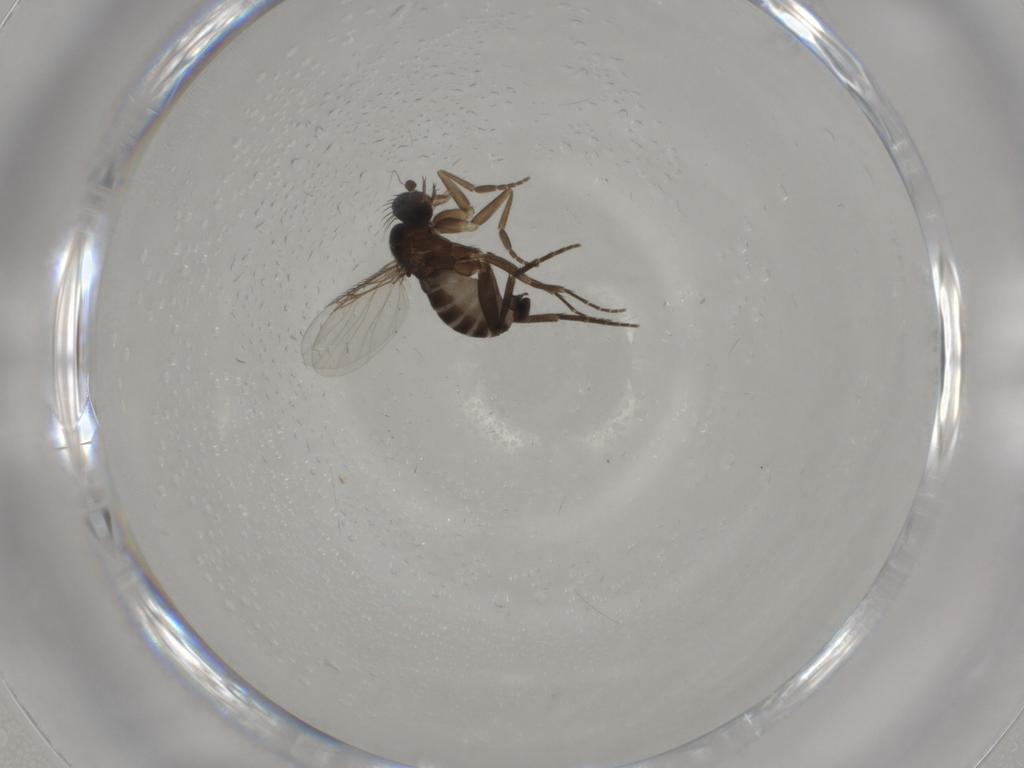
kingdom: Animalia
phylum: Arthropoda
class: Insecta
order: Diptera
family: Phoridae
